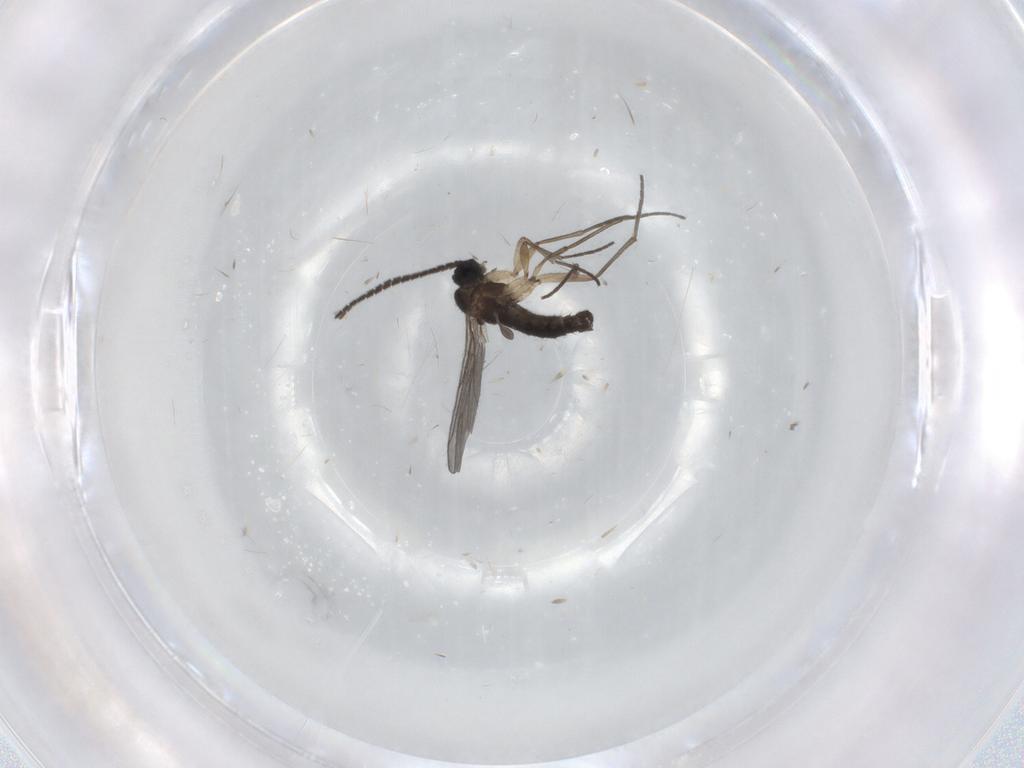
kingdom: Animalia
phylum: Arthropoda
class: Insecta
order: Diptera
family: Sciaridae
